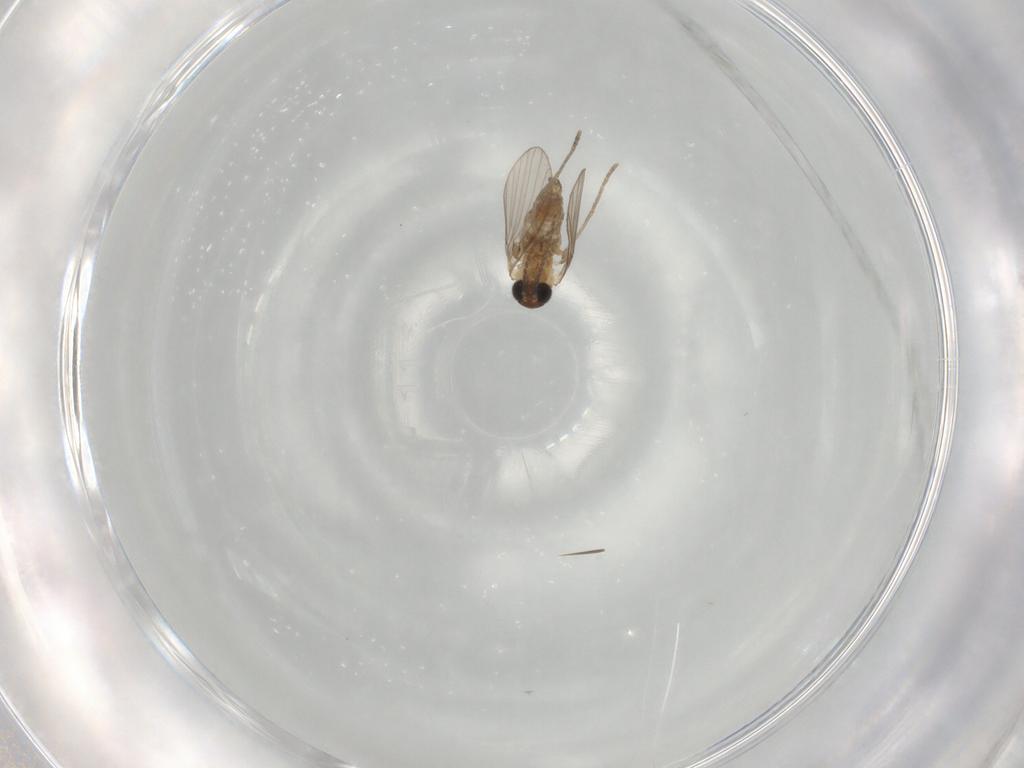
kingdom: Animalia
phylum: Arthropoda
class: Insecta
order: Diptera
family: Psychodidae
